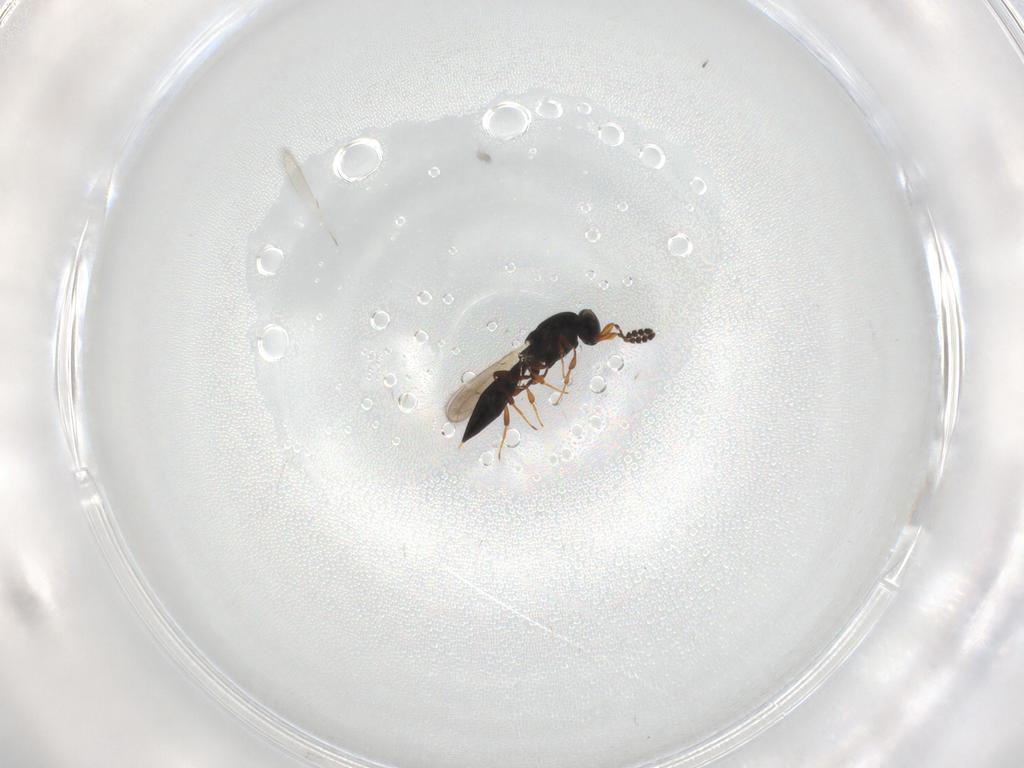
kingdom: Animalia
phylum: Arthropoda
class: Insecta
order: Hymenoptera
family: Platygastridae
